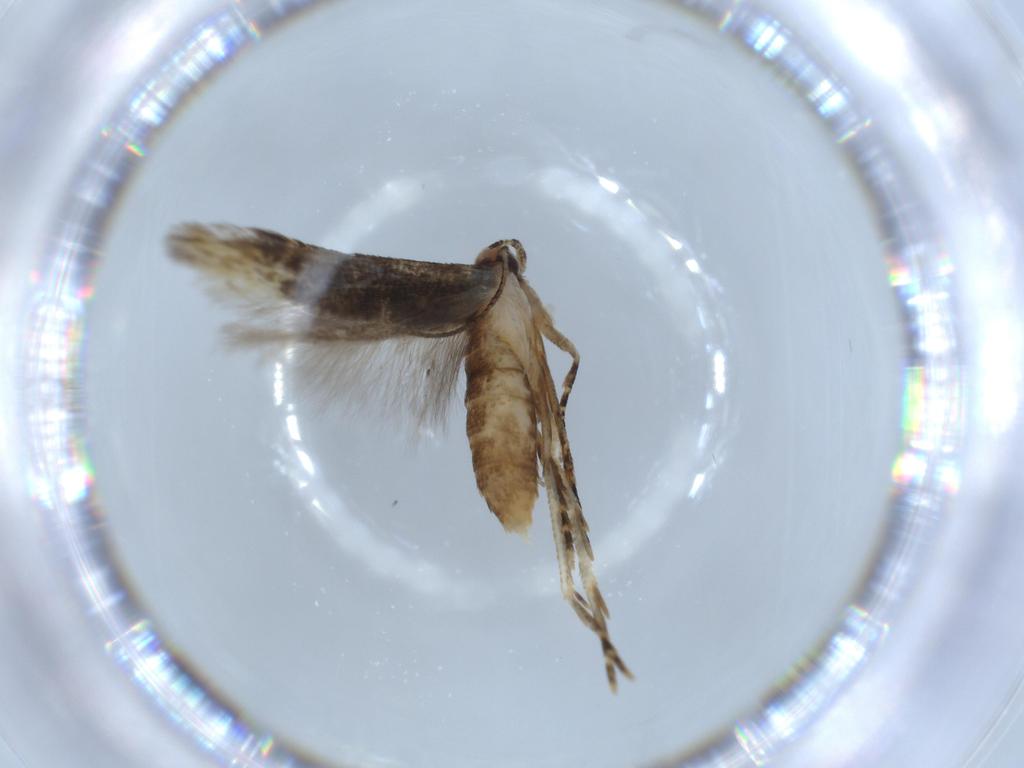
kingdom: Animalia
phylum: Arthropoda
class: Insecta
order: Lepidoptera
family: Stathmopodidae
